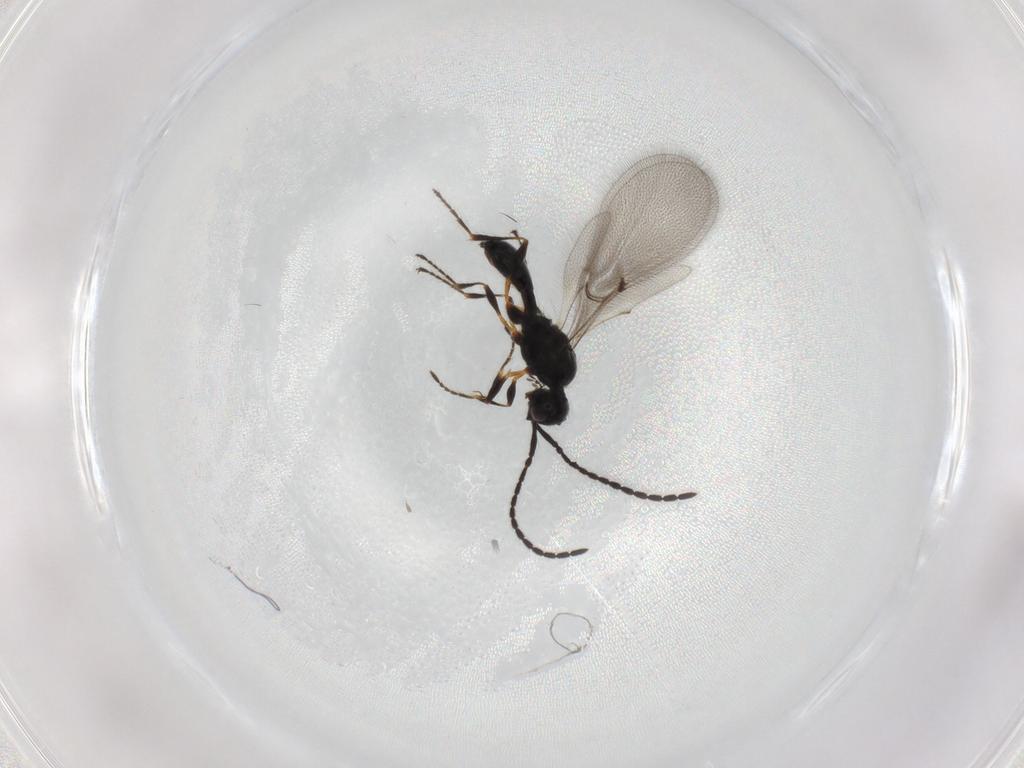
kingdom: Animalia
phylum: Arthropoda
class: Insecta
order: Hymenoptera
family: Diapriidae
